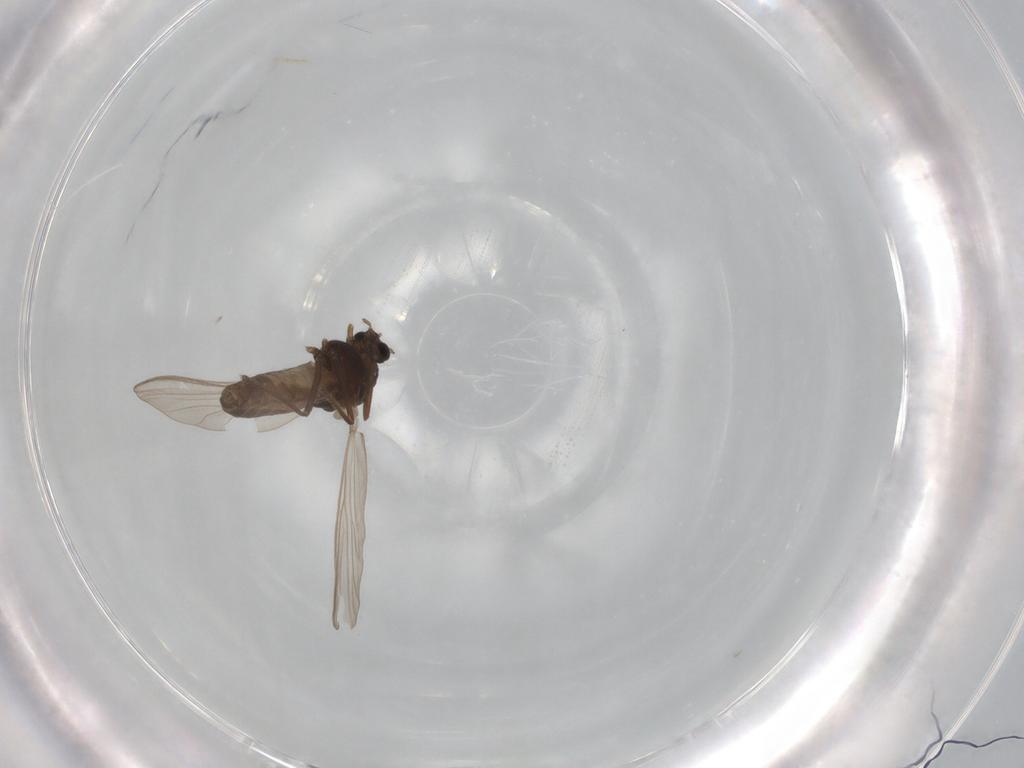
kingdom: Animalia
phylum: Arthropoda
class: Insecta
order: Diptera
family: Chironomidae
